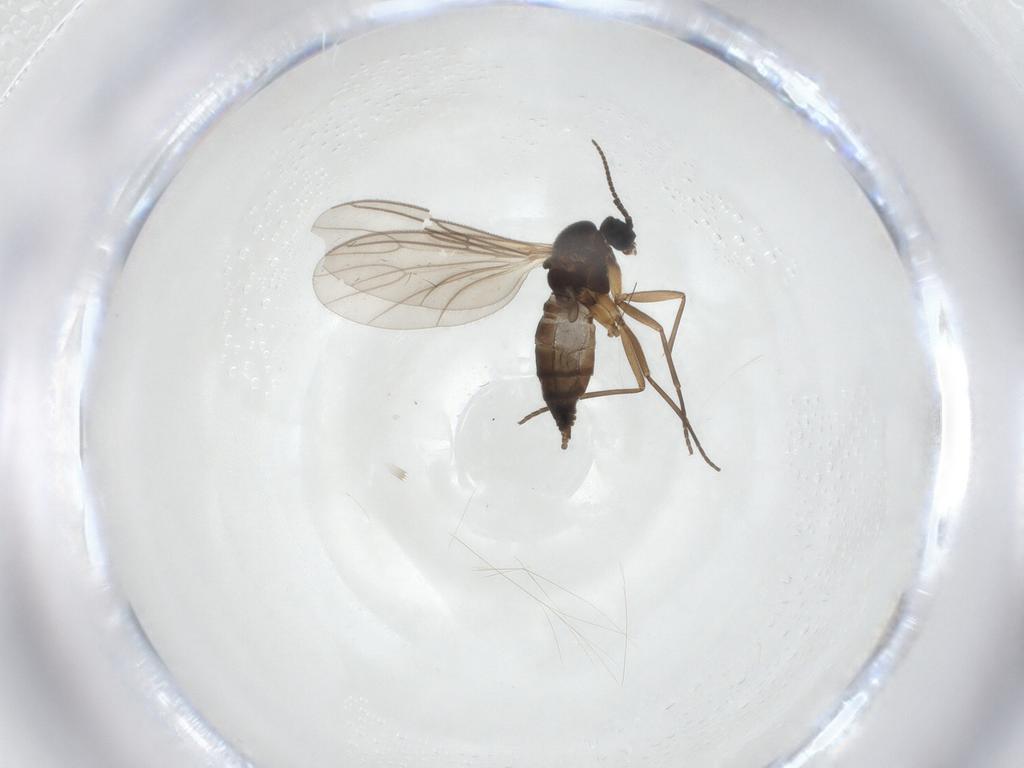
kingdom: Animalia
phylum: Arthropoda
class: Insecta
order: Diptera
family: Sciaridae
